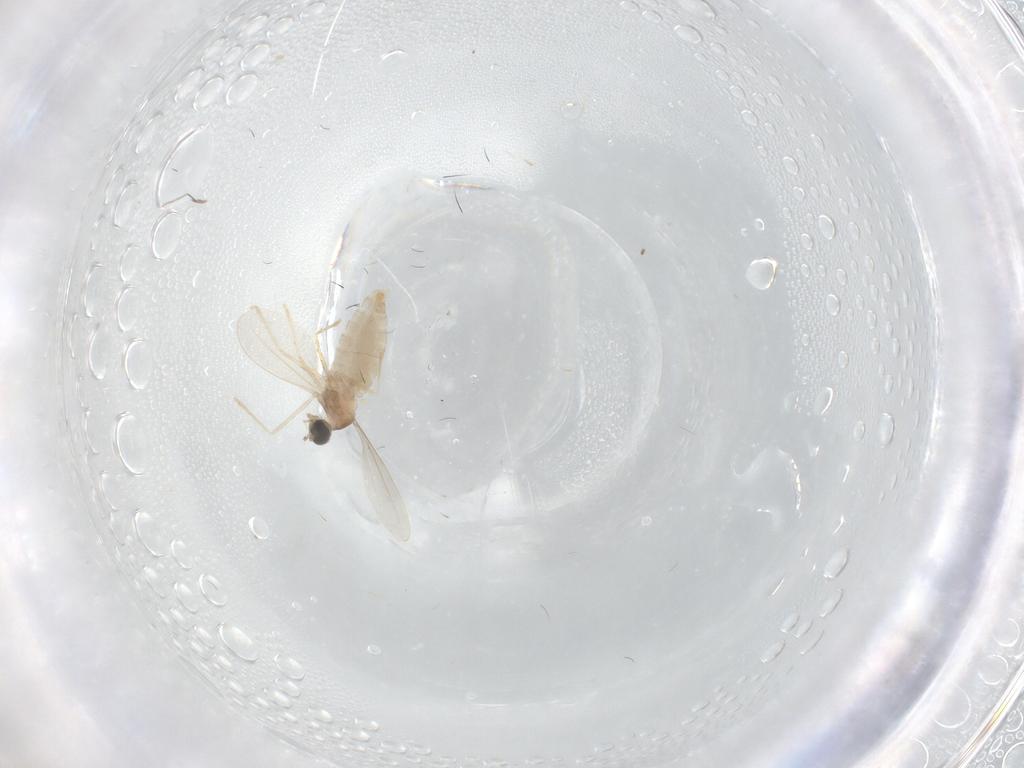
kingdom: Animalia
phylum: Arthropoda
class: Insecta
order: Diptera
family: Cecidomyiidae
